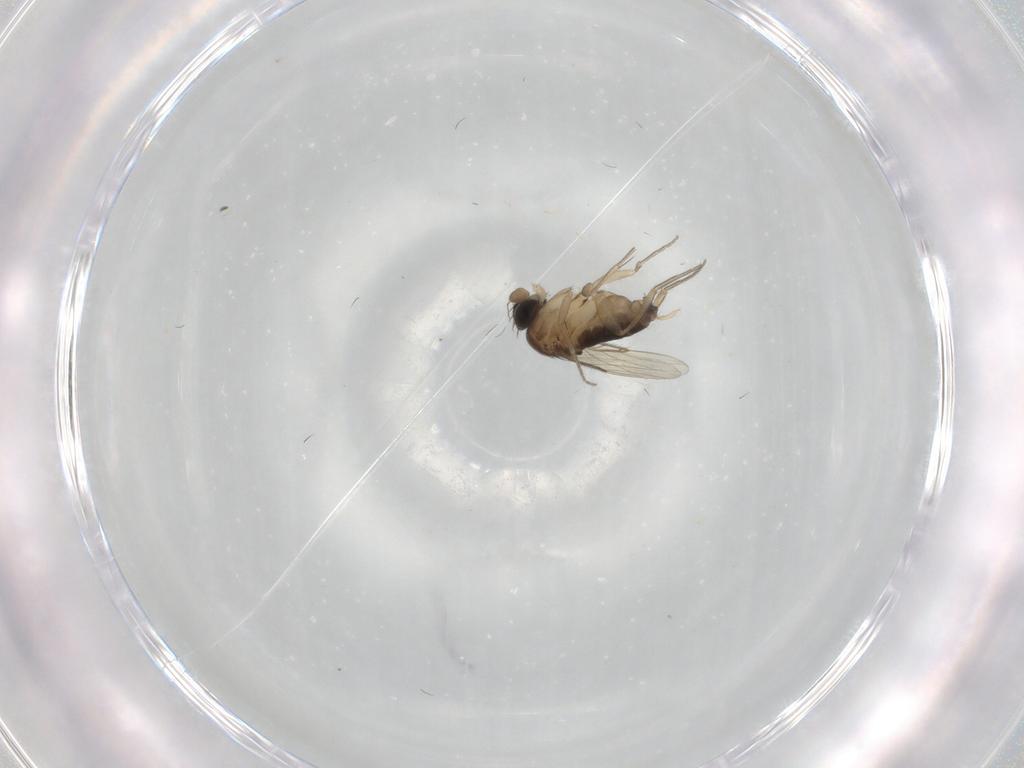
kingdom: Animalia
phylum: Arthropoda
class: Insecta
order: Diptera
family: Phoridae
